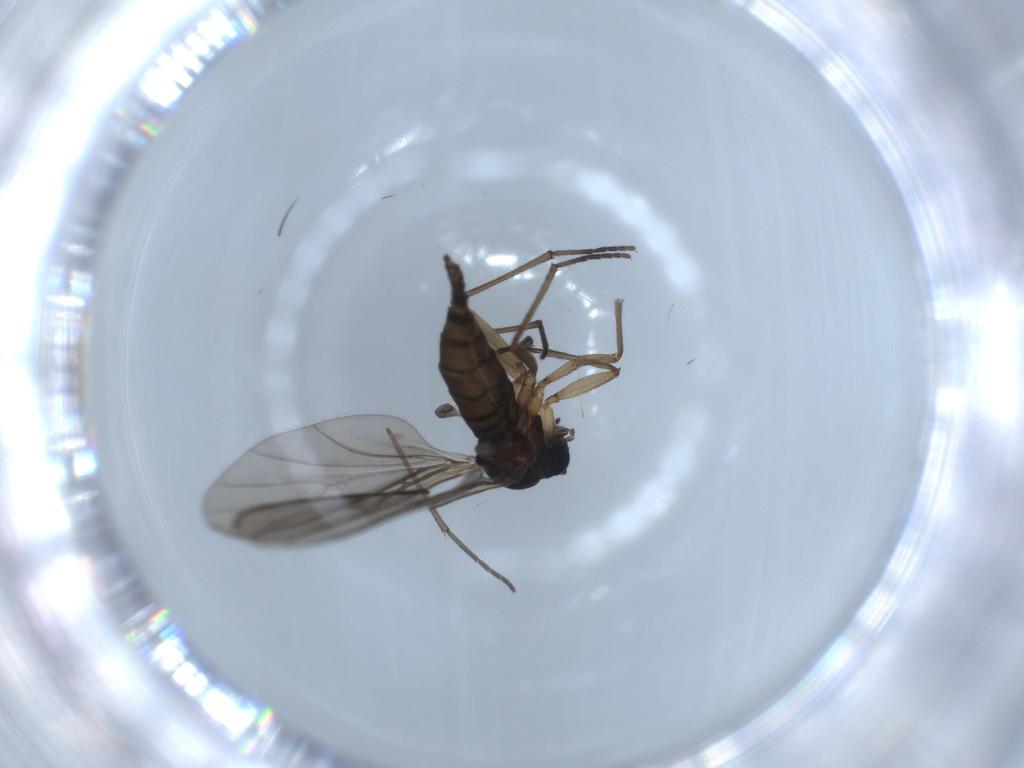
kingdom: Animalia
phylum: Arthropoda
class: Insecta
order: Diptera
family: Sciaridae
